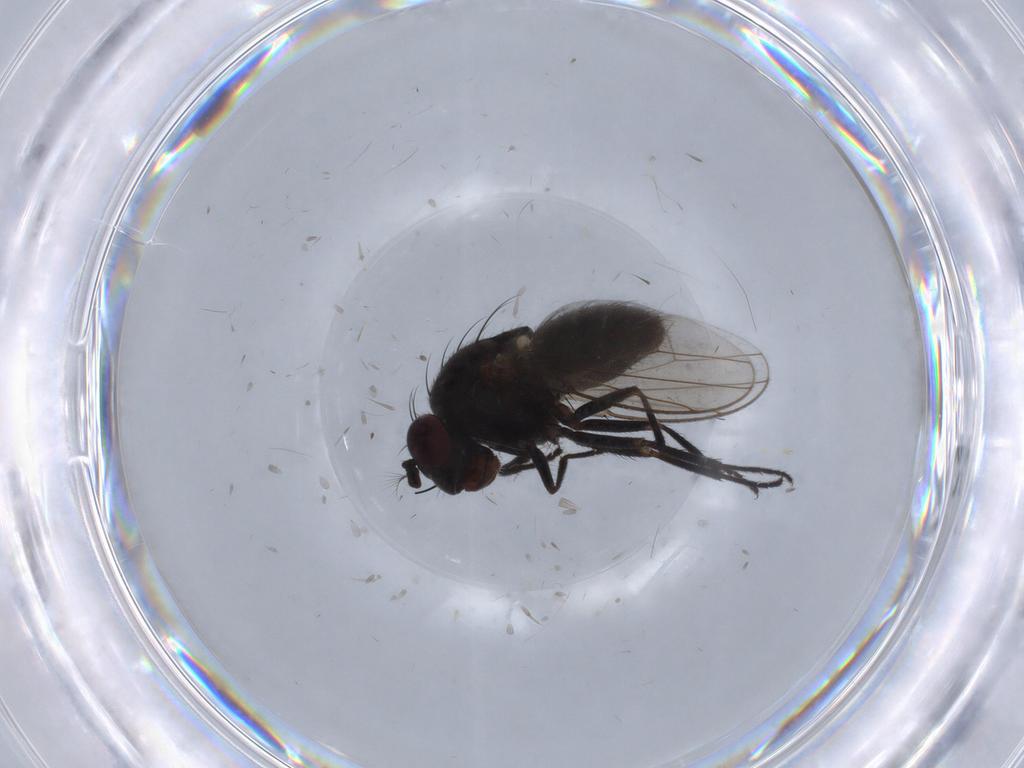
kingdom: Animalia
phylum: Arthropoda
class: Insecta
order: Diptera
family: Ephydridae
